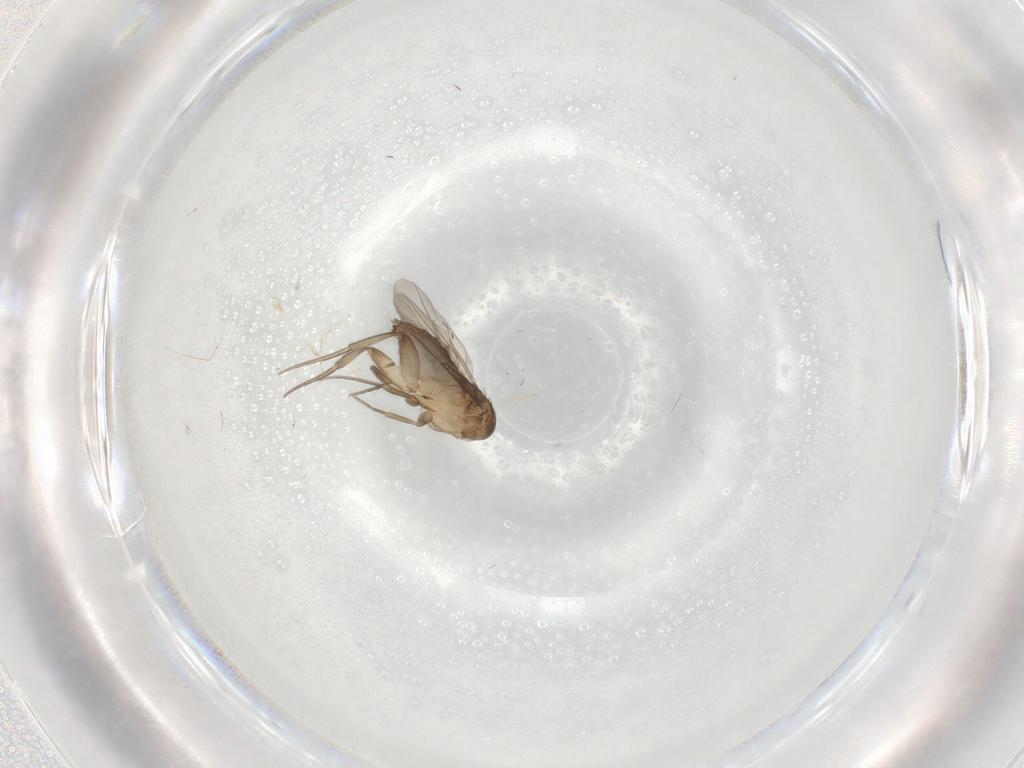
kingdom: Animalia
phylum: Arthropoda
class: Insecta
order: Diptera
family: Phoridae
